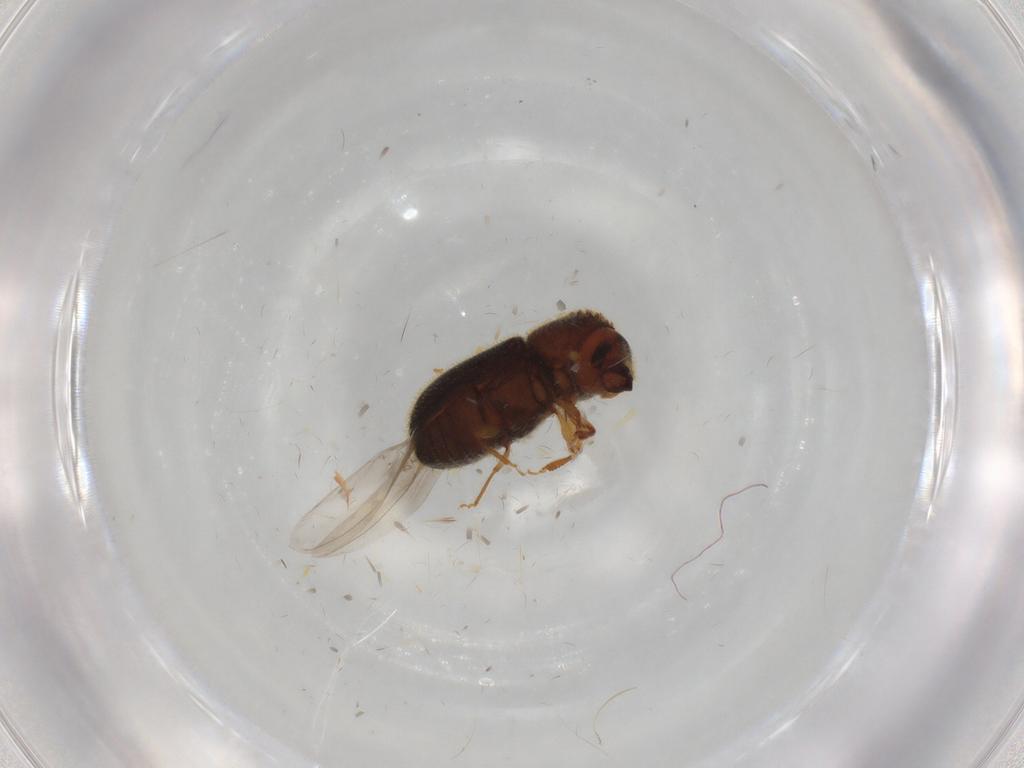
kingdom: Animalia
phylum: Arthropoda
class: Insecta
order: Coleoptera
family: Curculionidae
